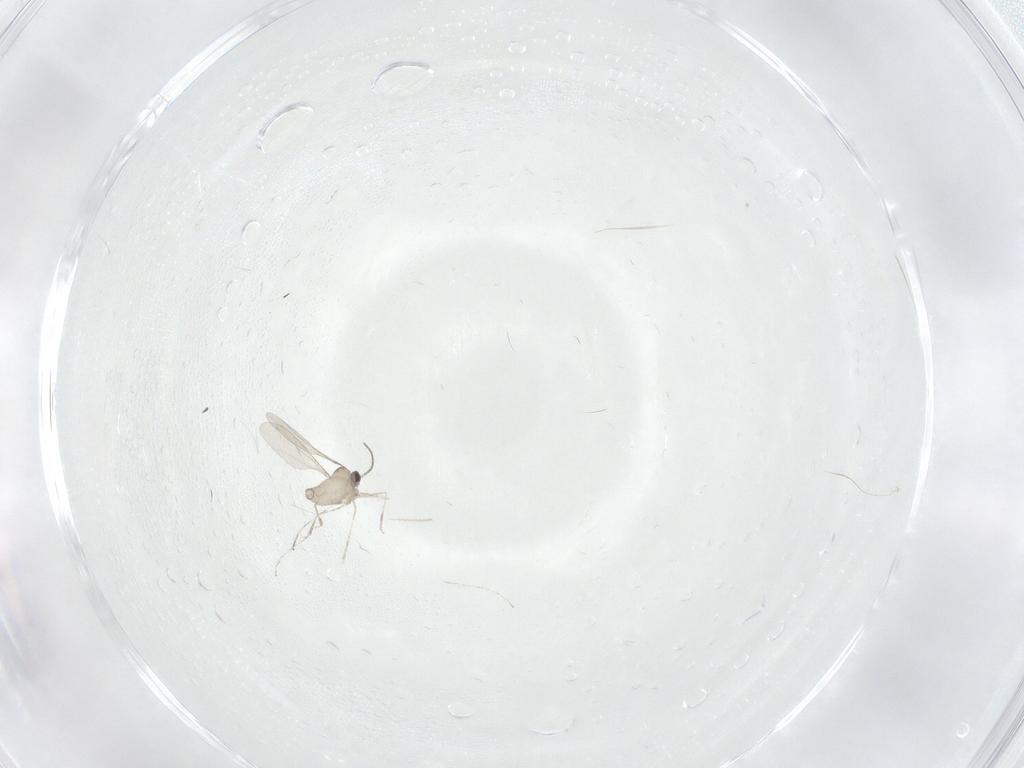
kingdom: Animalia
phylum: Arthropoda
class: Insecta
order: Diptera
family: Cecidomyiidae
